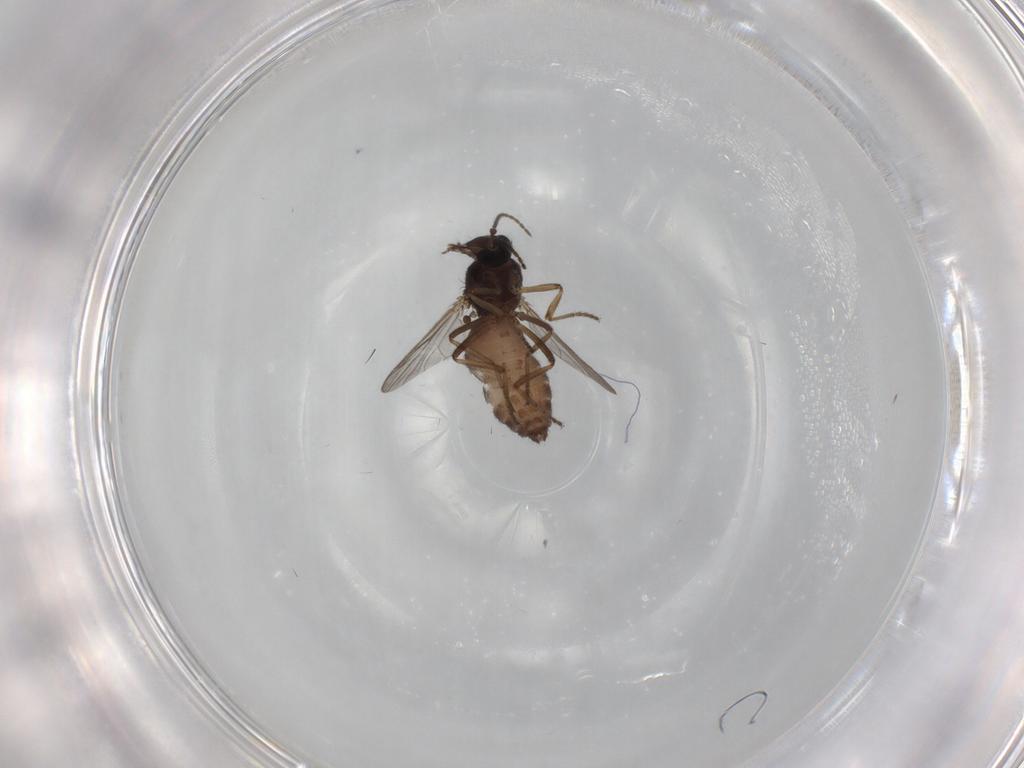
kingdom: Animalia
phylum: Arthropoda
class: Insecta
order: Diptera
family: Ceratopogonidae
